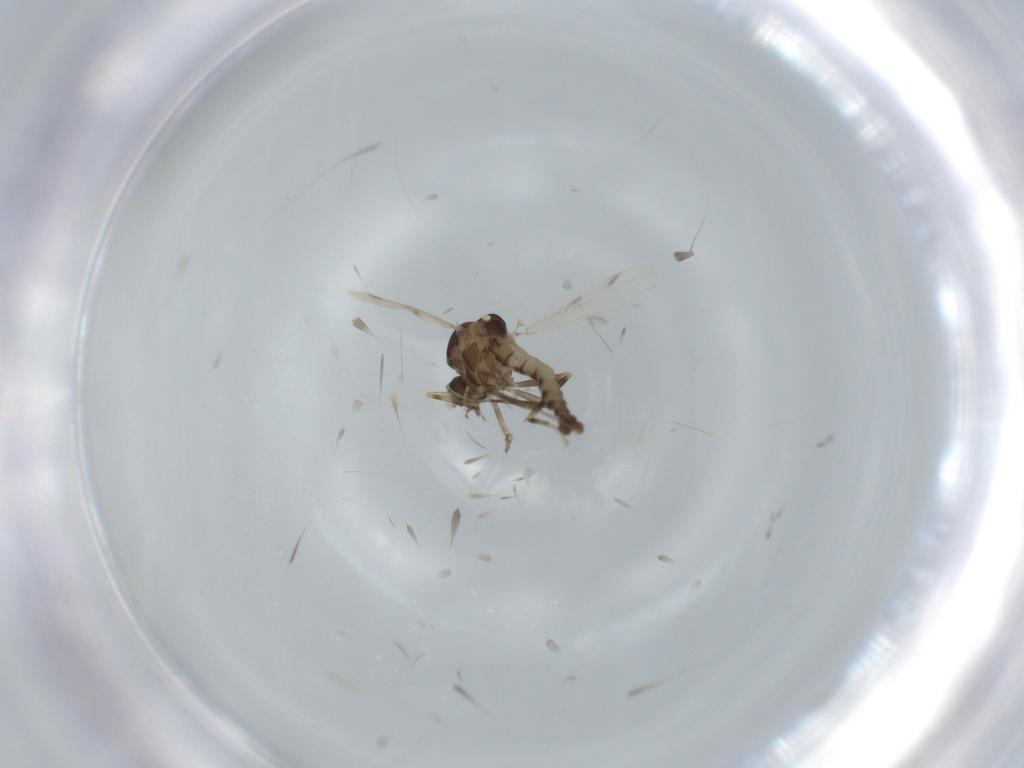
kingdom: Animalia
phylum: Arthropoda
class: Insecta
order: Diptera
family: Ceratopogonidae
